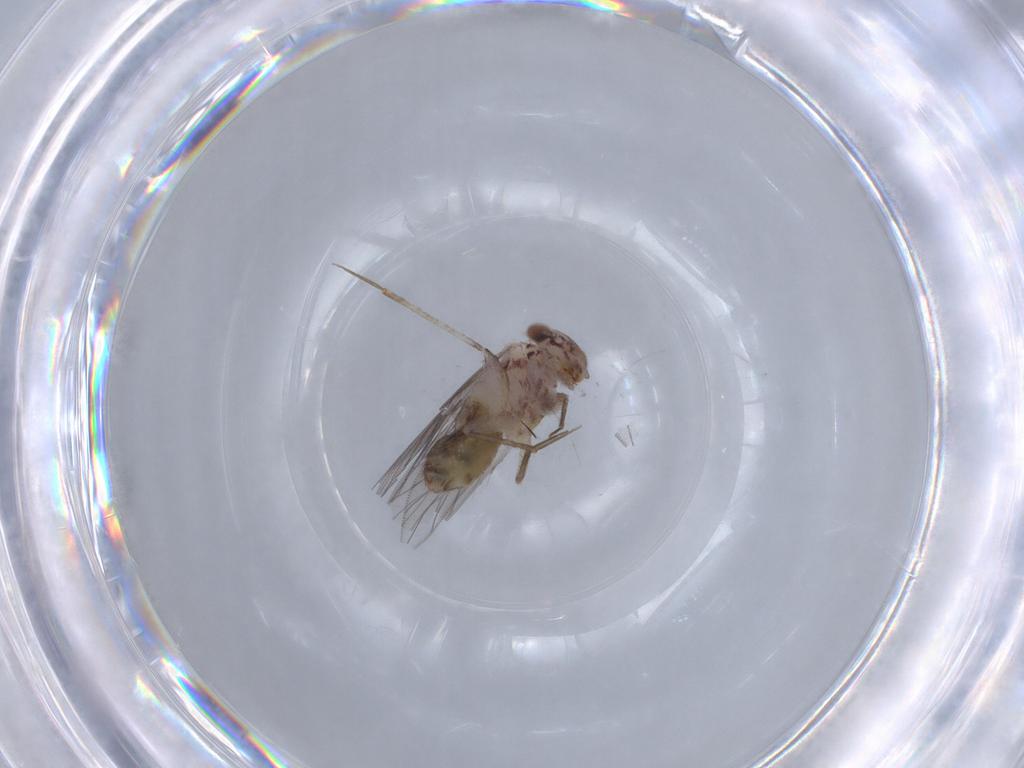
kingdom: Animalia
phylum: Arthropoda
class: Insecta
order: Psocodea
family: Lepidopsocidae
